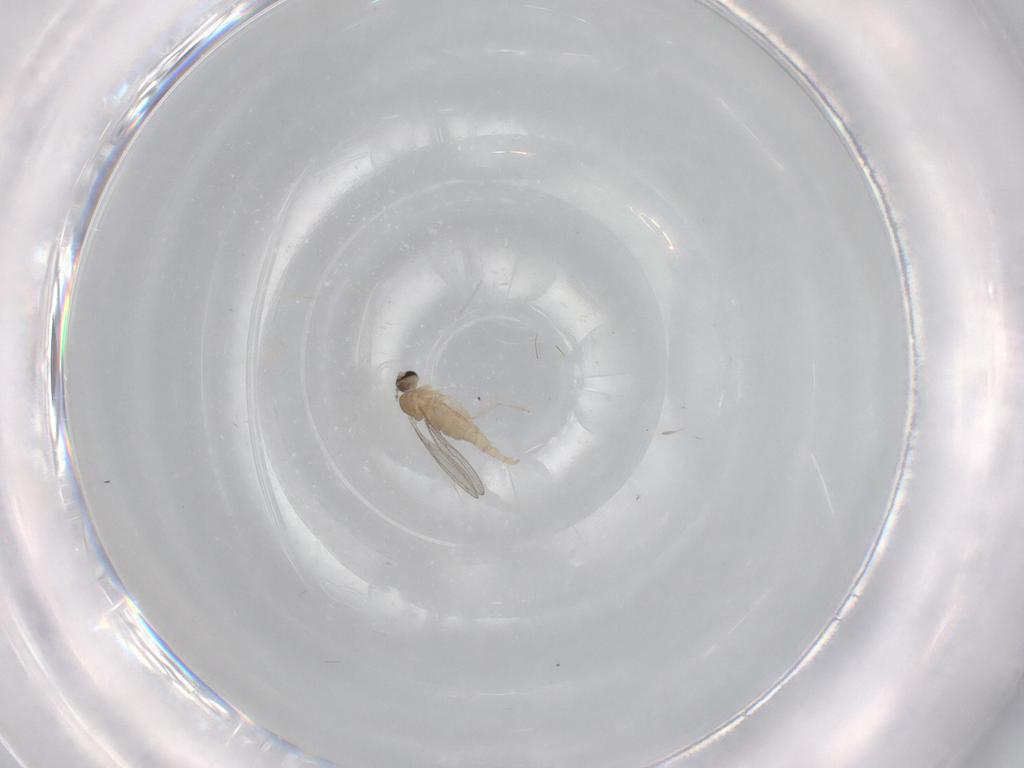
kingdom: Animalia
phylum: Arthropoda
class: Insecta
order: Diptera
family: Cecidomyiidae
